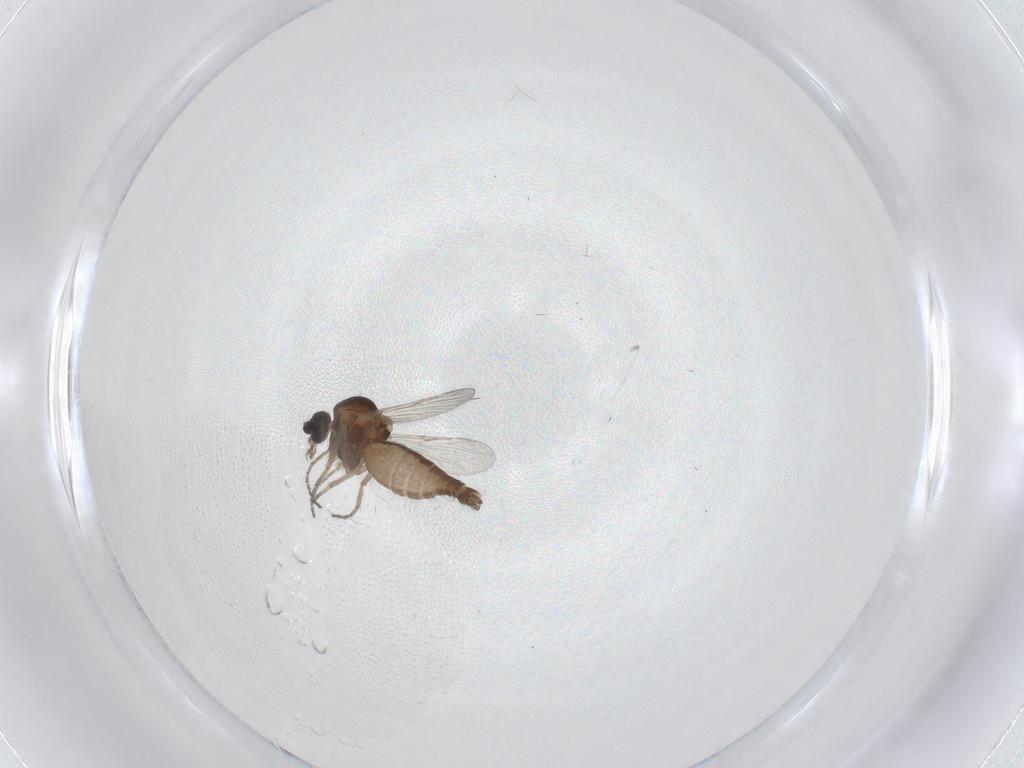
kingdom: Animalia
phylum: Arthropoda
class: Insecta
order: Diptera
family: Ceratopogonidae
